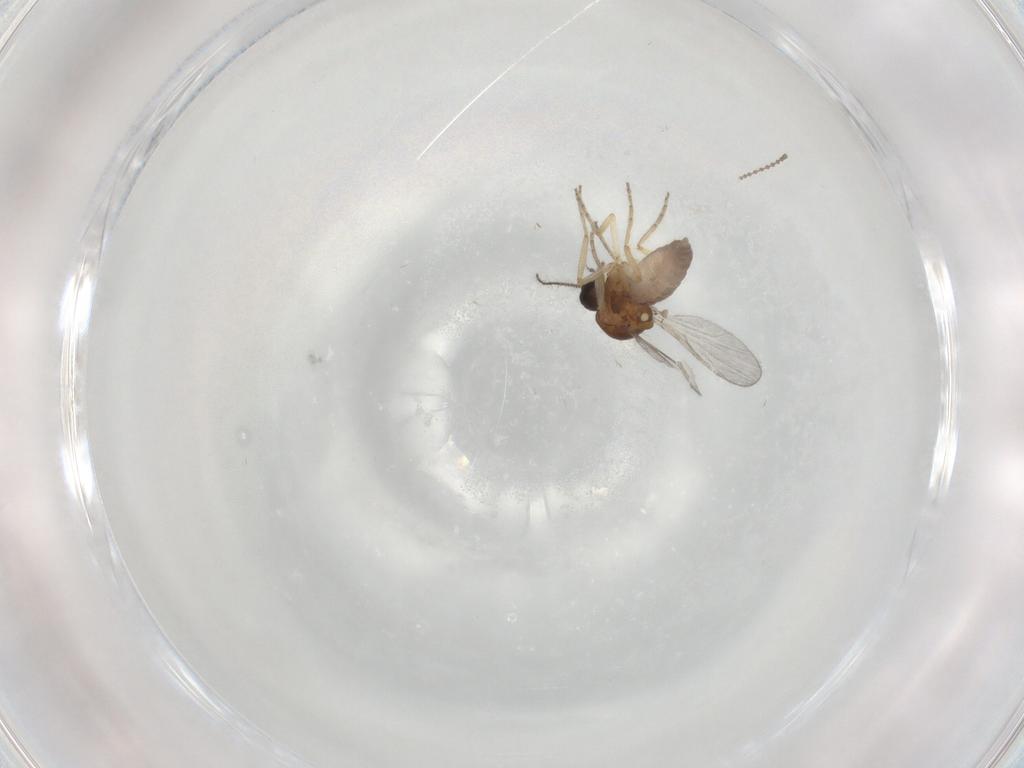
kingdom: Animalia
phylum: Arthropoda
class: Insecta
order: Diptera
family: Ceratopogonidae
